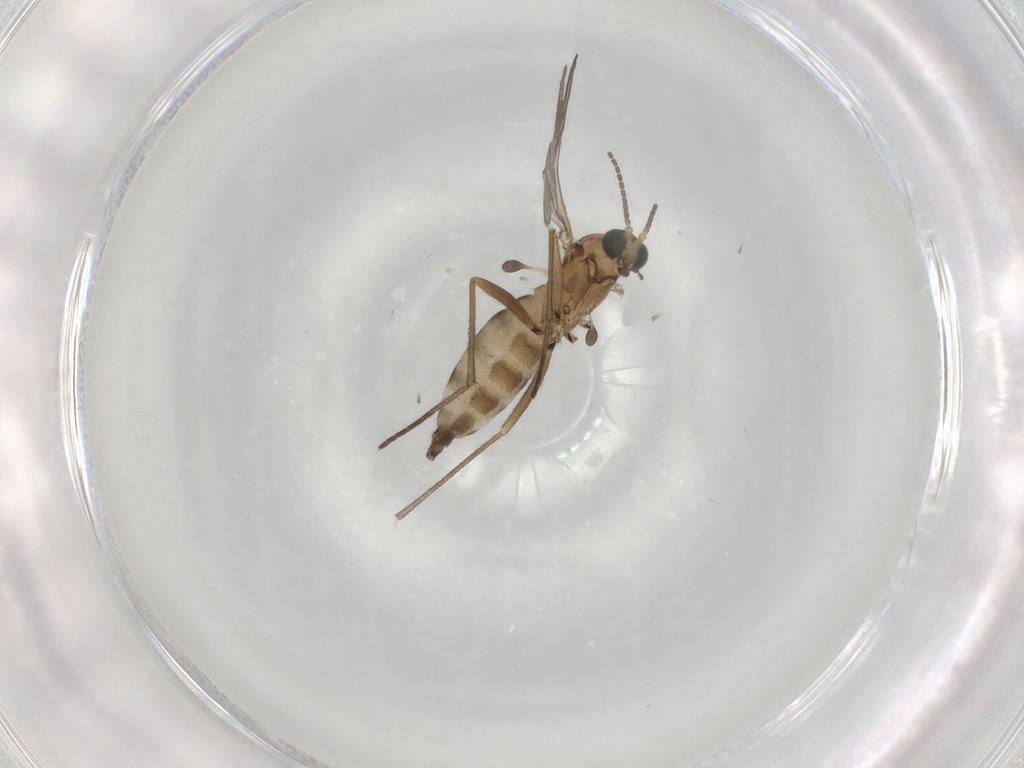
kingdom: Animalia
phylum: Arthropoda
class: Insecta
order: Diptera
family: Sciaridae
